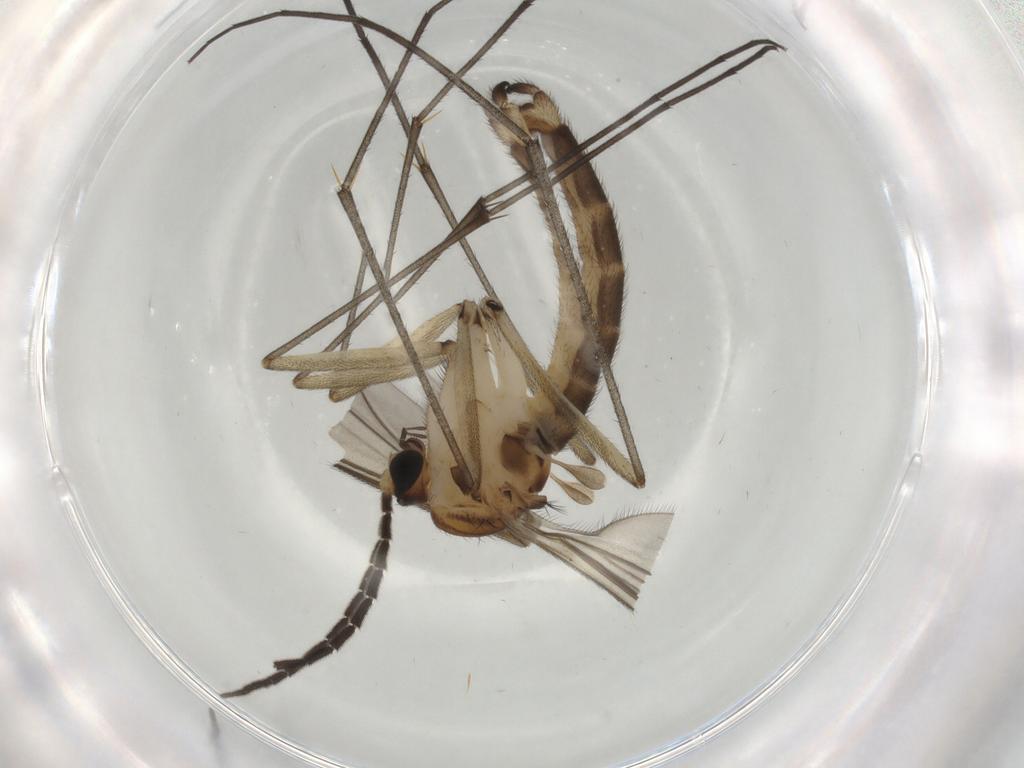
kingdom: Animalia
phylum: Arthropoda
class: Insecta
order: Diptera
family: Sciaridae
